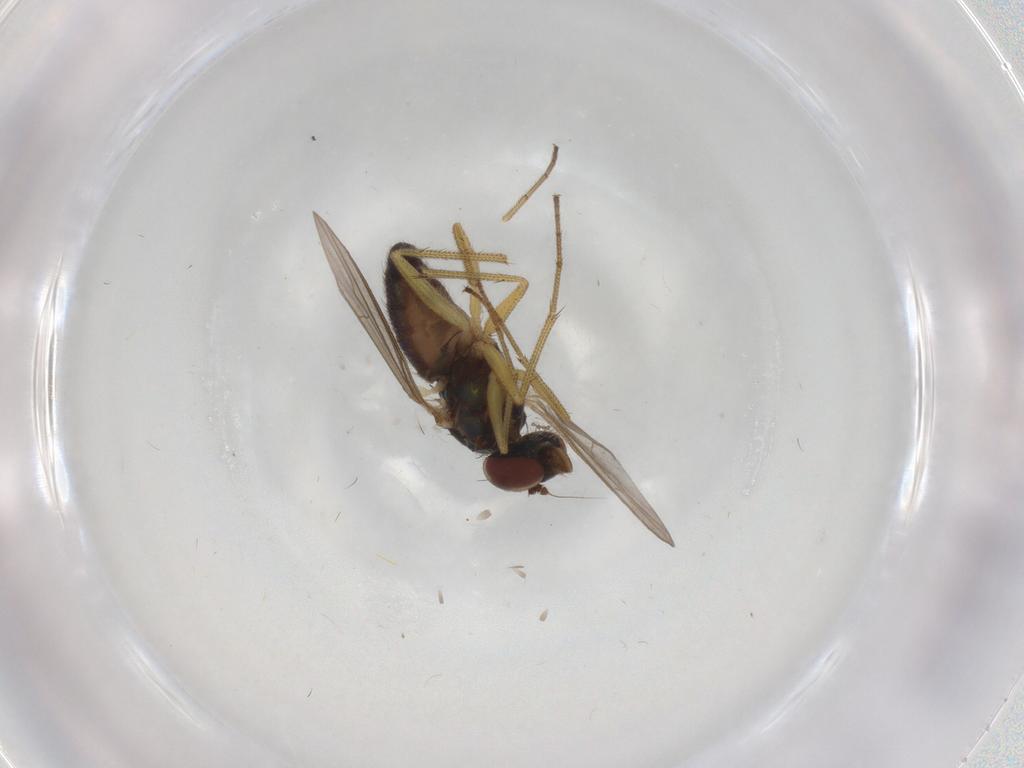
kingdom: Animalia
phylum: Arthropoda
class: Insecta
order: Diptera
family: Dolichopodidae
